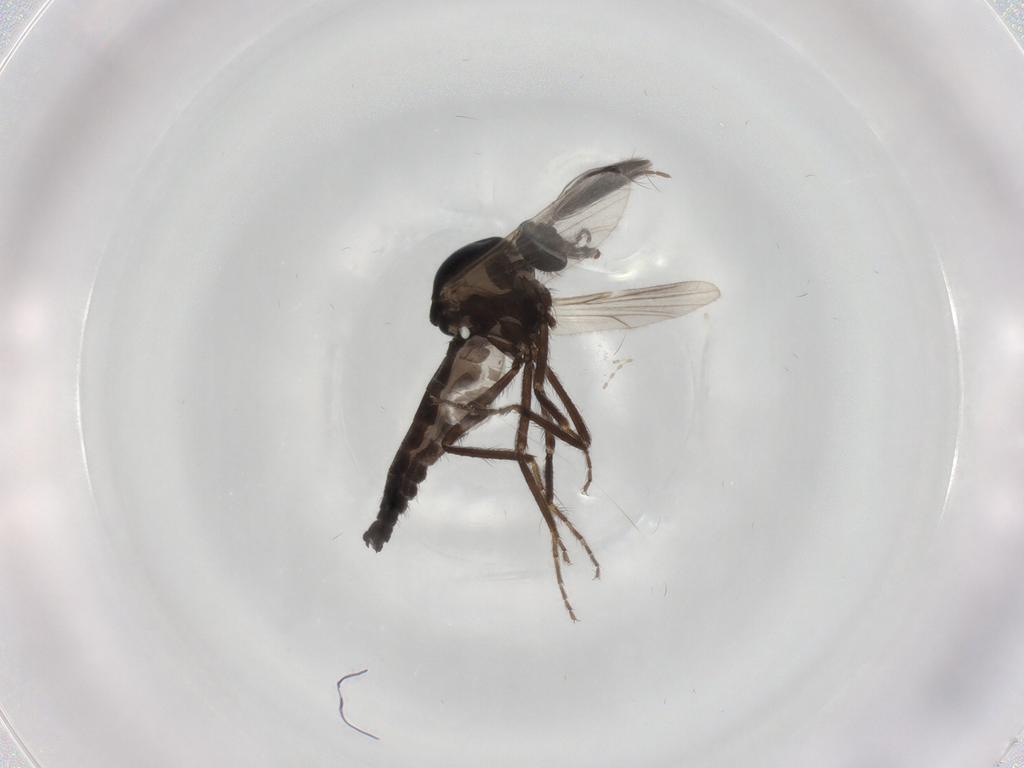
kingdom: Animalia
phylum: Arthropoda
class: Insecta
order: Diptera
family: Ceratopogonidae
